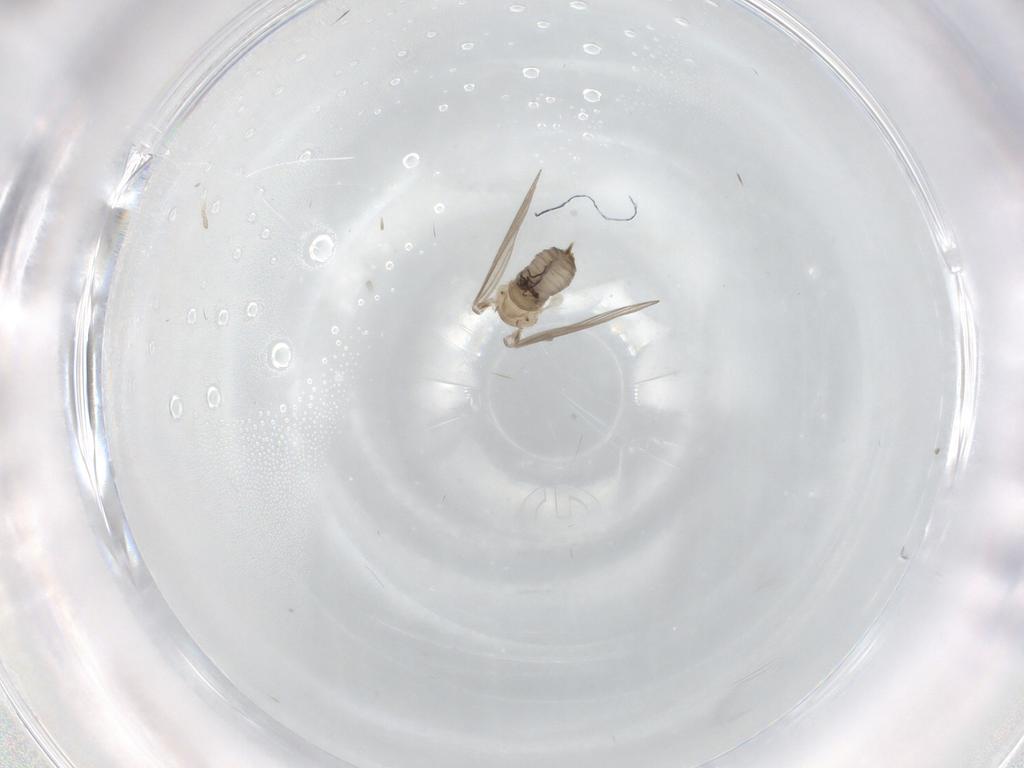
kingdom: Animalia
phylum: Arthropoda
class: Insecta
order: Diptera
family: Psychodidae
